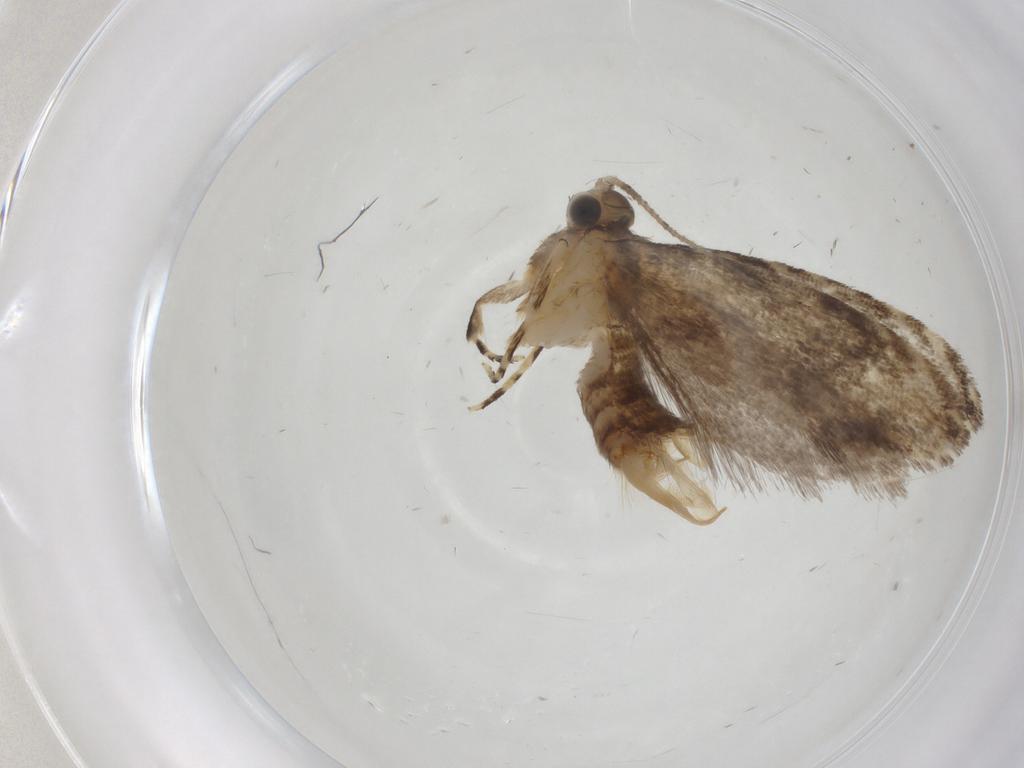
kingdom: Animalia
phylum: Arthropoda
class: Insecta
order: Lepidoptera
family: Tineidae
